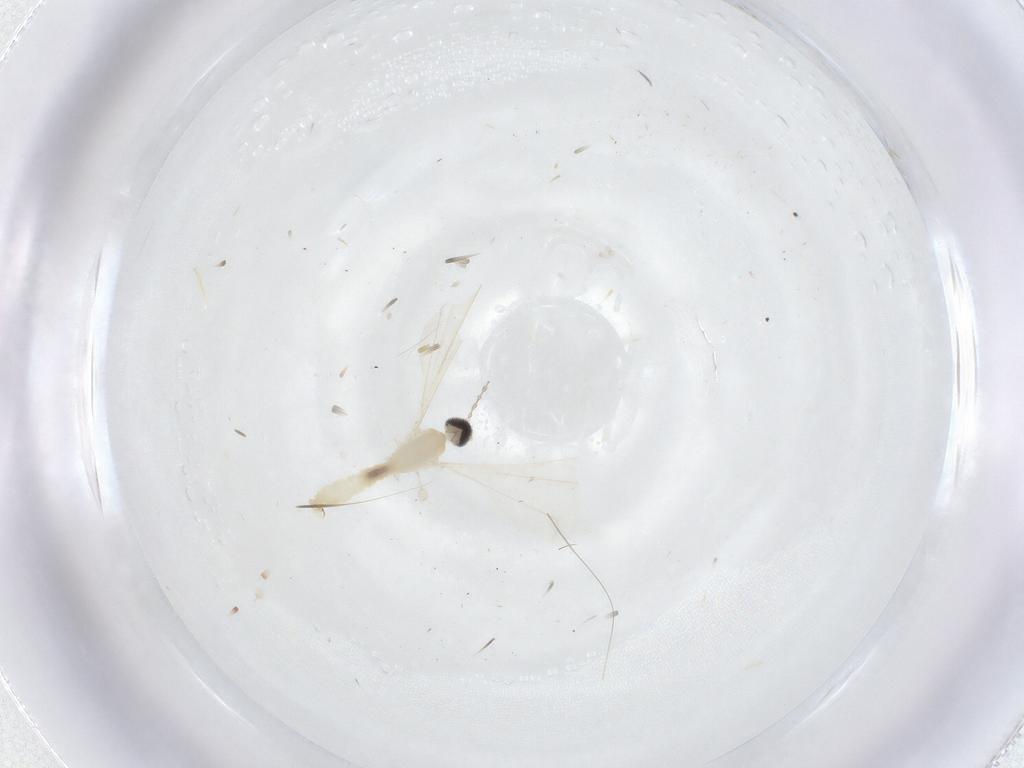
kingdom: Animalia
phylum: Arthropoda
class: Insecta
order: Diptera
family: Cecidomyiidae
